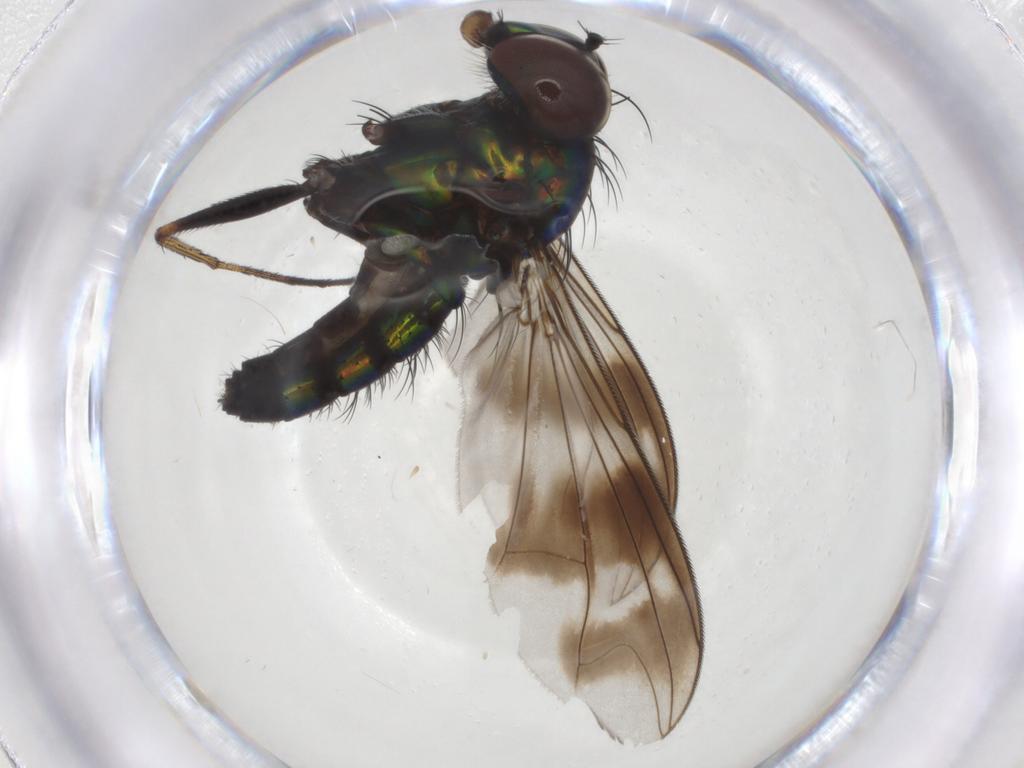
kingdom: Animalia
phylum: Arthropoda
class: Insecta
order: Diptera
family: Dolichopodidae
